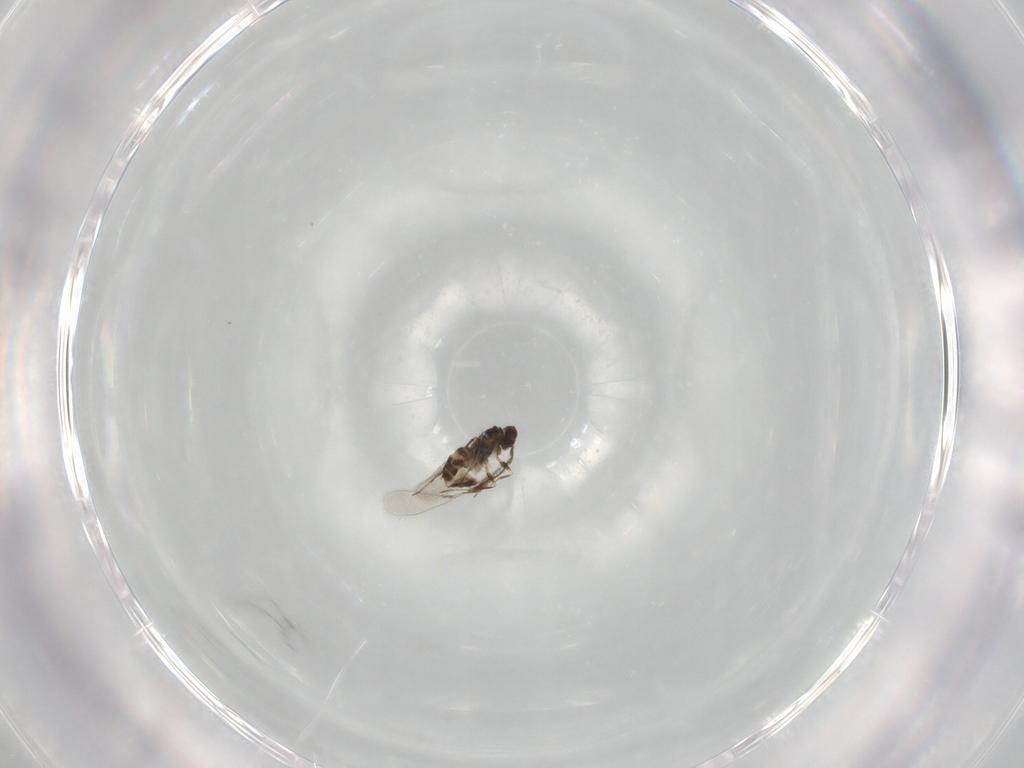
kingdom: Animalia
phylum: Arthropoda
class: Insecta
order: Hymenoptera
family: Mymaridae
